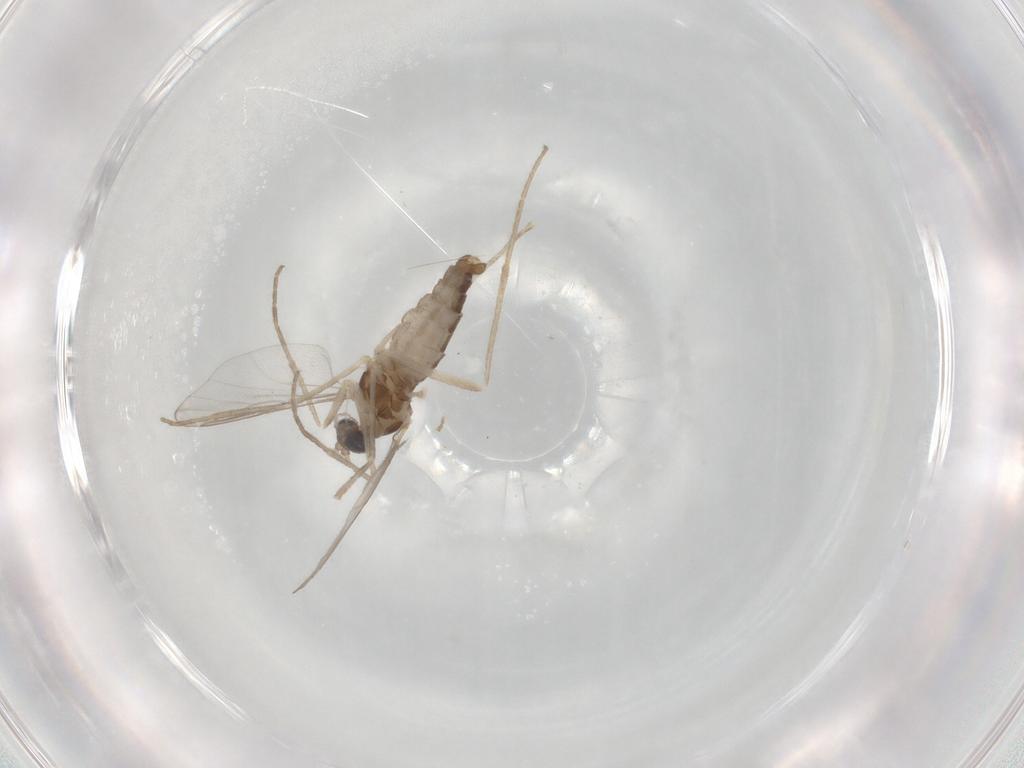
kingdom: Animalia
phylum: Arthropoda
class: Insecta
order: Diptera
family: Cecidomyiidae
